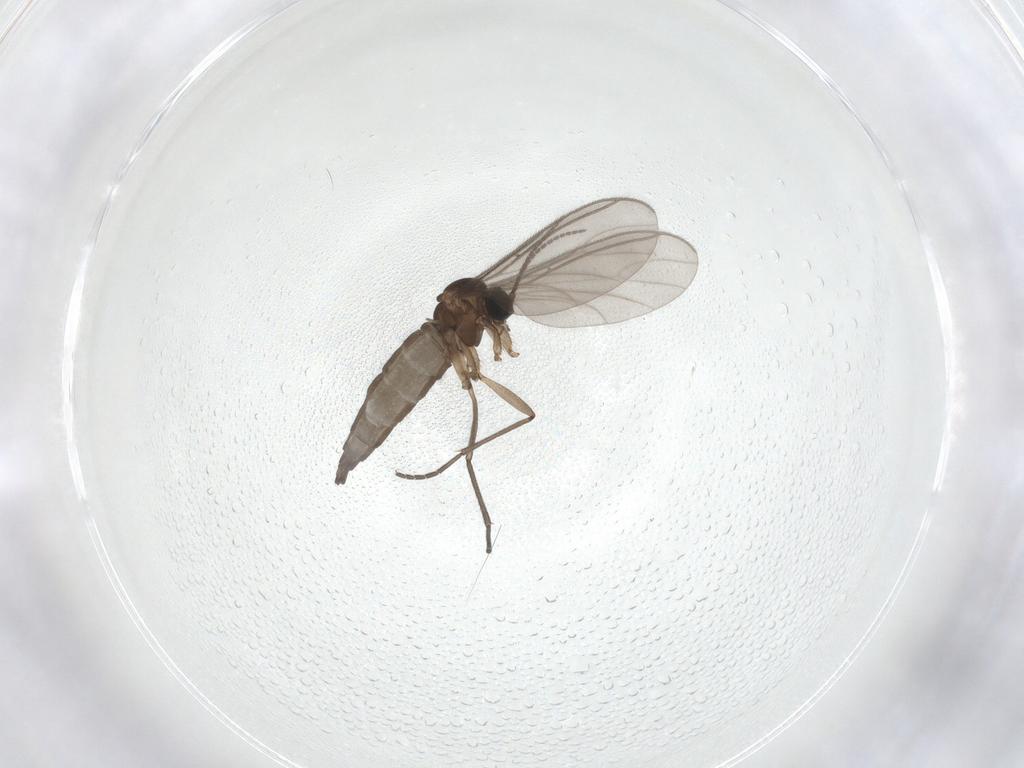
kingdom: Animalia
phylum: Arthropoda
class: Insecta
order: Diptera
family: Sciaridae
